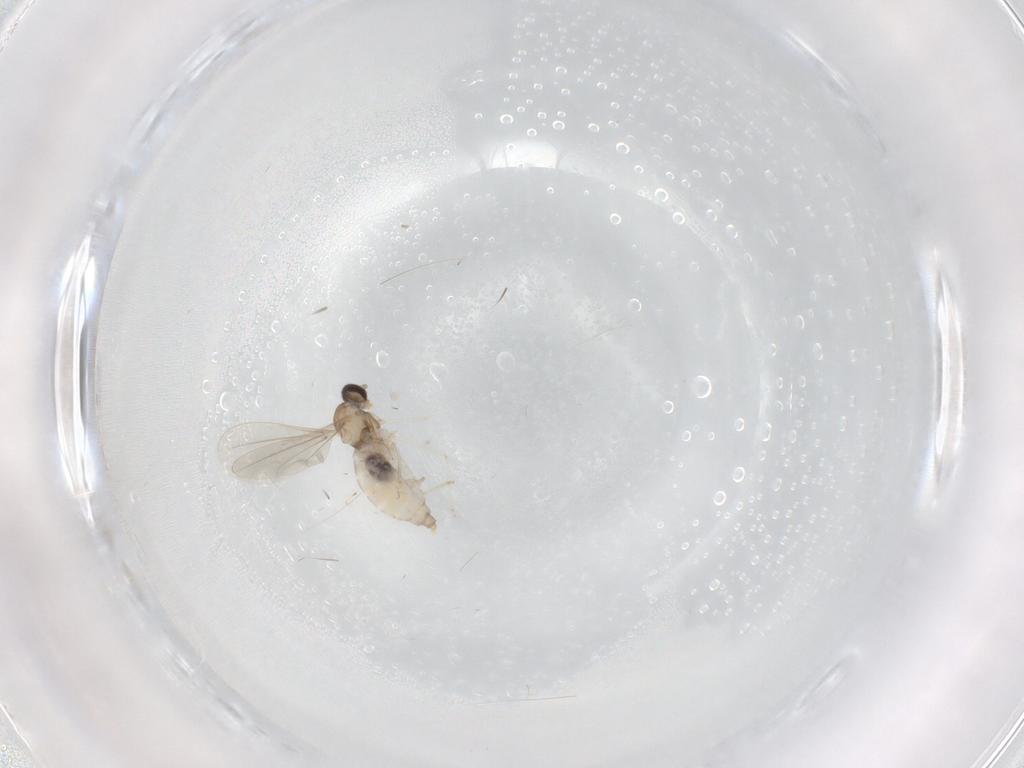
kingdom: Animalia
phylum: Arthropoda
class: Insecta
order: Diptera
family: Cecidomyiidae
